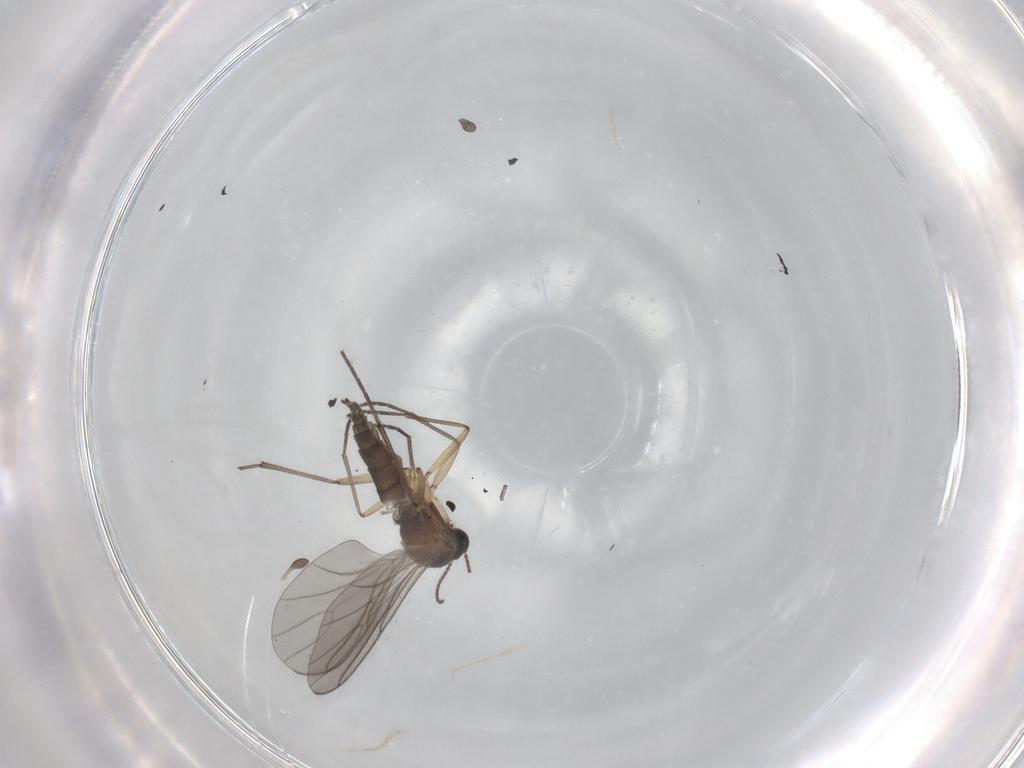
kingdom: Animalia
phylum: Arthropoda
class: Insecta
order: Diptera
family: Sciaridae
